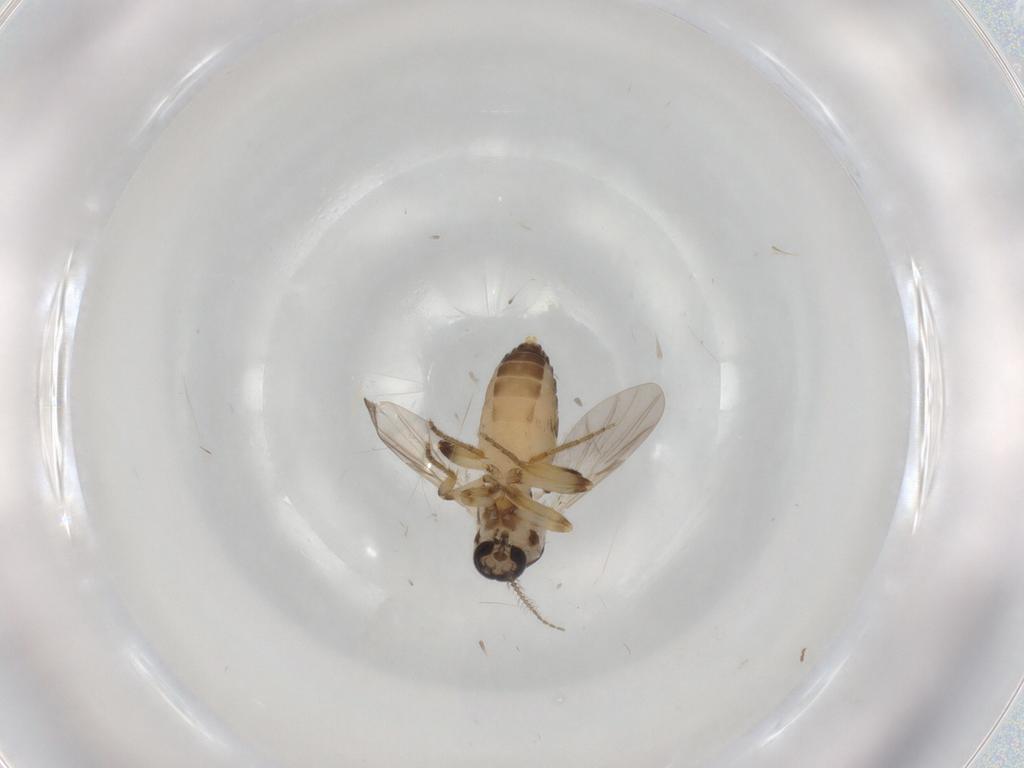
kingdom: Animalia
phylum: Arthropoda
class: Insecta
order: Diptera
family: Ceratopogonidae
